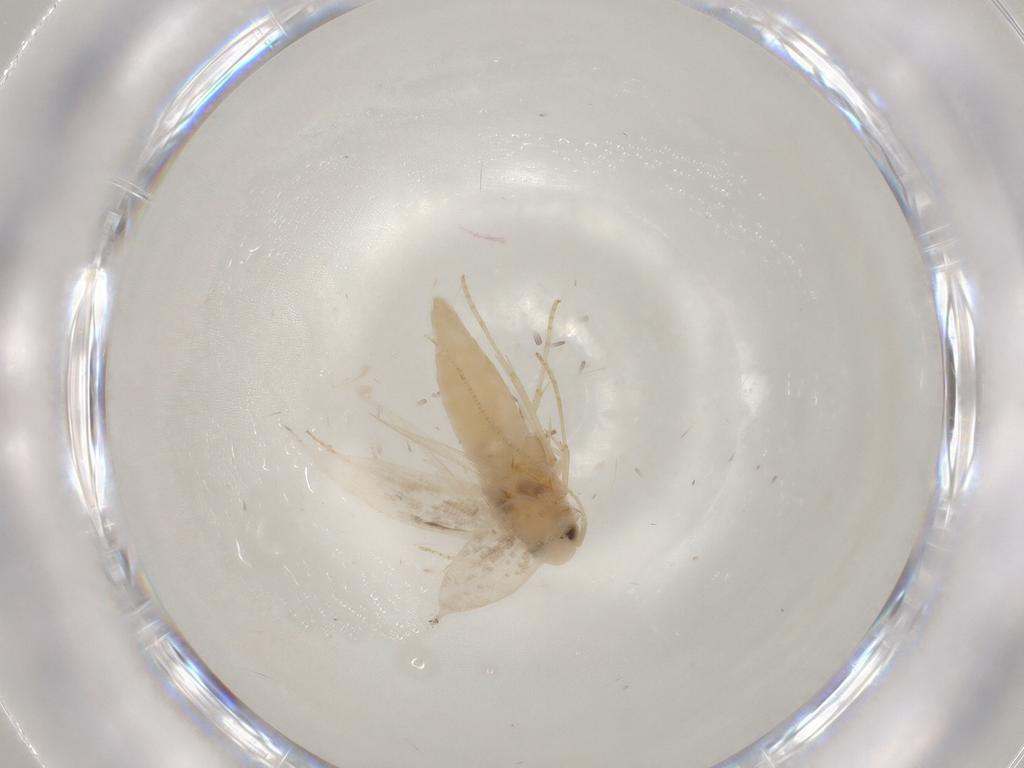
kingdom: Animalia
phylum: Arthropoda
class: Insecta
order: Lepidoptera
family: Gracillariidae
